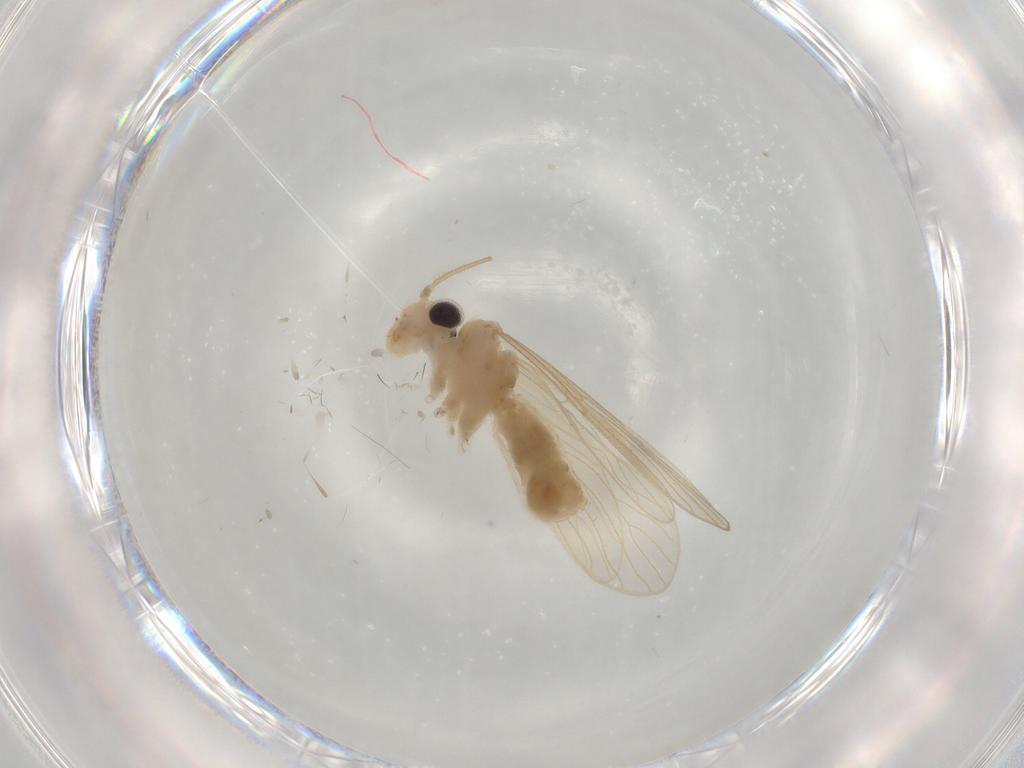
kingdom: Animalia
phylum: Arthropoda
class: Insecta
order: Psocodea
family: Cladiopsocidae
